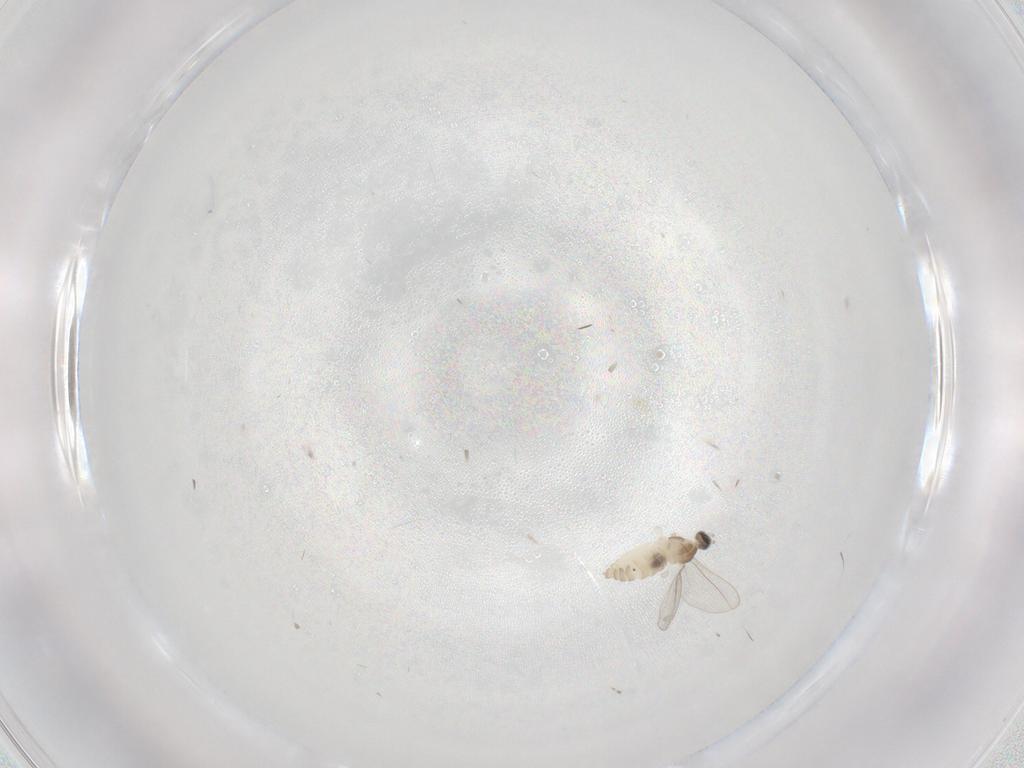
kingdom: Animalia
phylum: Arthropoda
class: Insecta
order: Diptera
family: Cecidomyiidae
